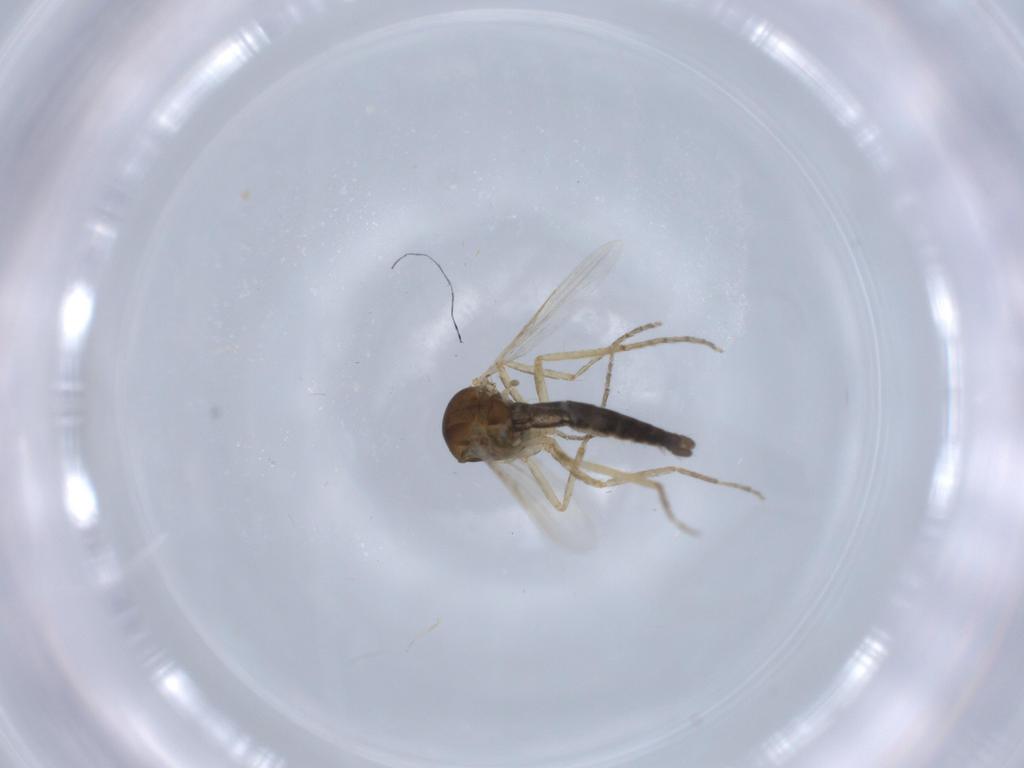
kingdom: Animalia
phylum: Arthropoda
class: Insecta
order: Diptera
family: Ceratopogonidae
